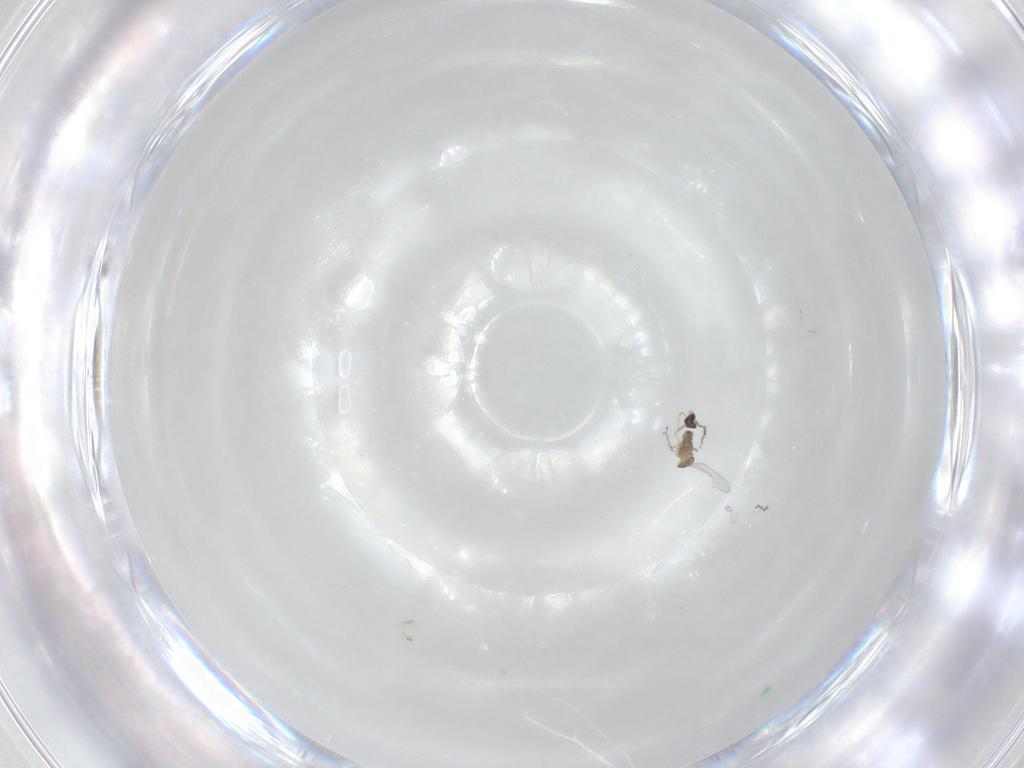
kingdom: Animalia
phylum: Arthropoda
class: Insecta
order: Diptera
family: Cecidomyiidae
